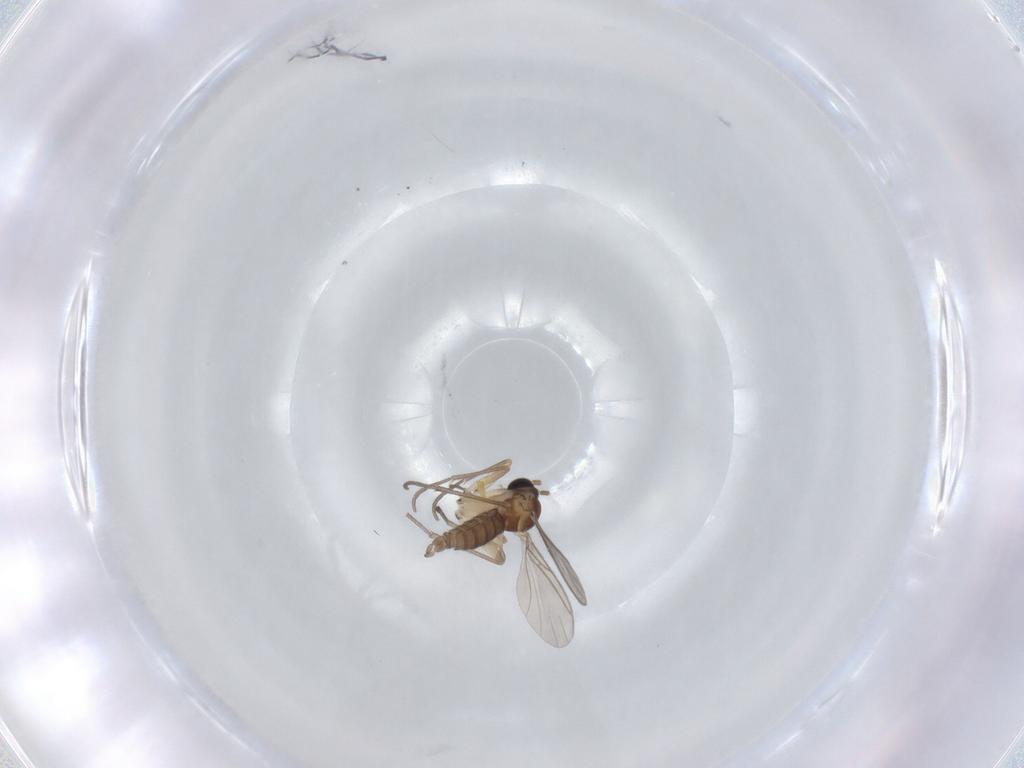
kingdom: Animalia
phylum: Arthropoda
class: Insecta
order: Diptera
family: Sciaridae
